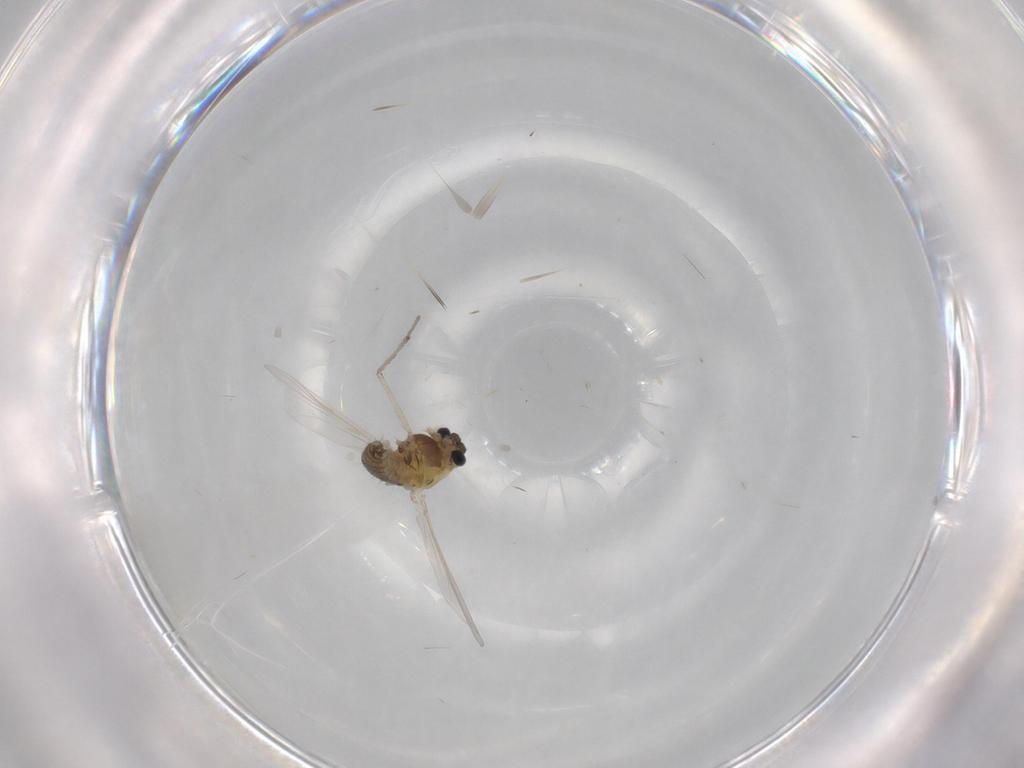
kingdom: Animalia
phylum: Arthropoda
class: Insecta
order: Diptera
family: Chironomidae
